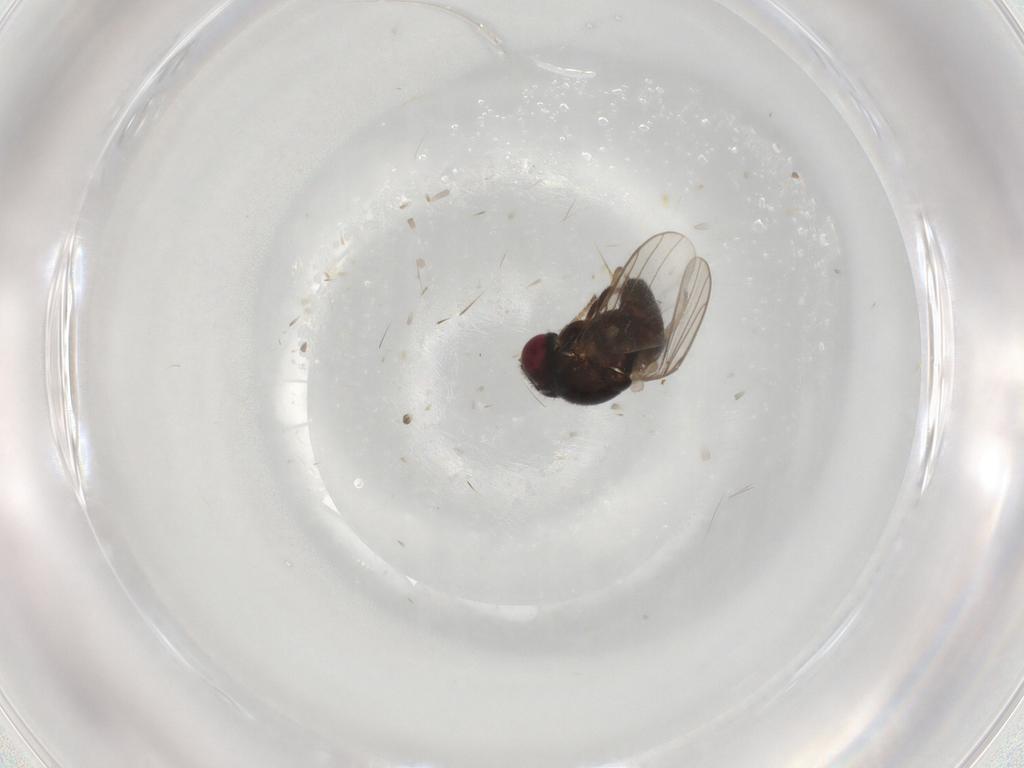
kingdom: Animalia
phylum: Arthropoda
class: Insecta
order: Diptera
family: Chloropidae
